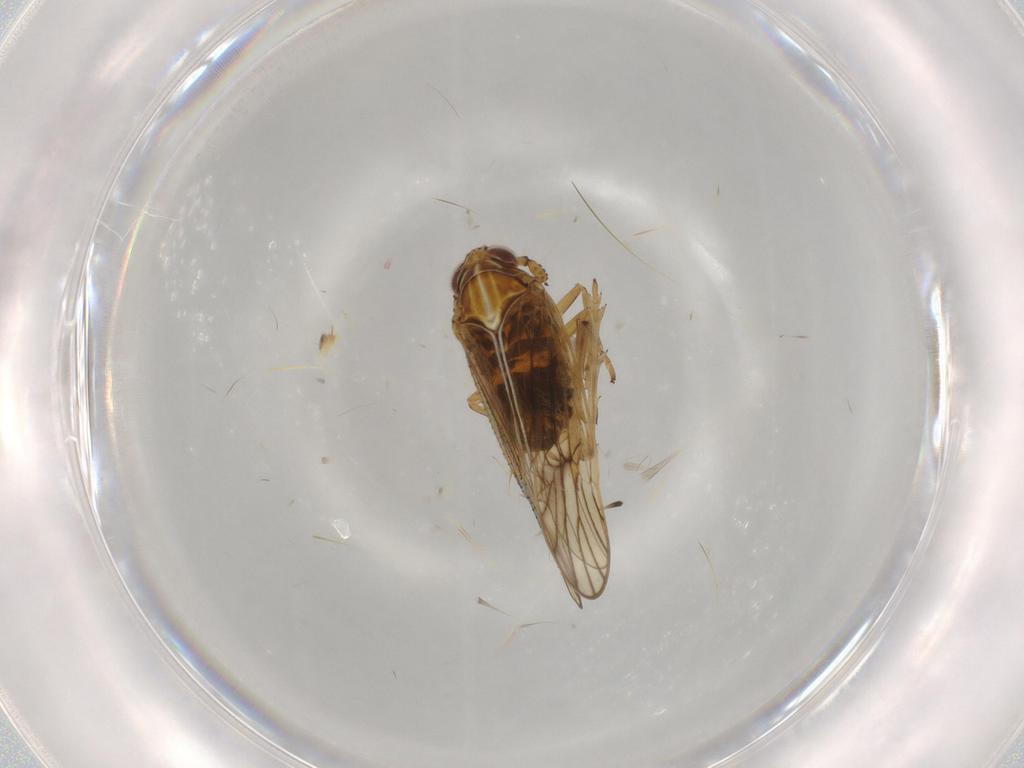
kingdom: Animalia
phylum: Arthropoda
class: Insecta
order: Hemiptera
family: Delphacidae
